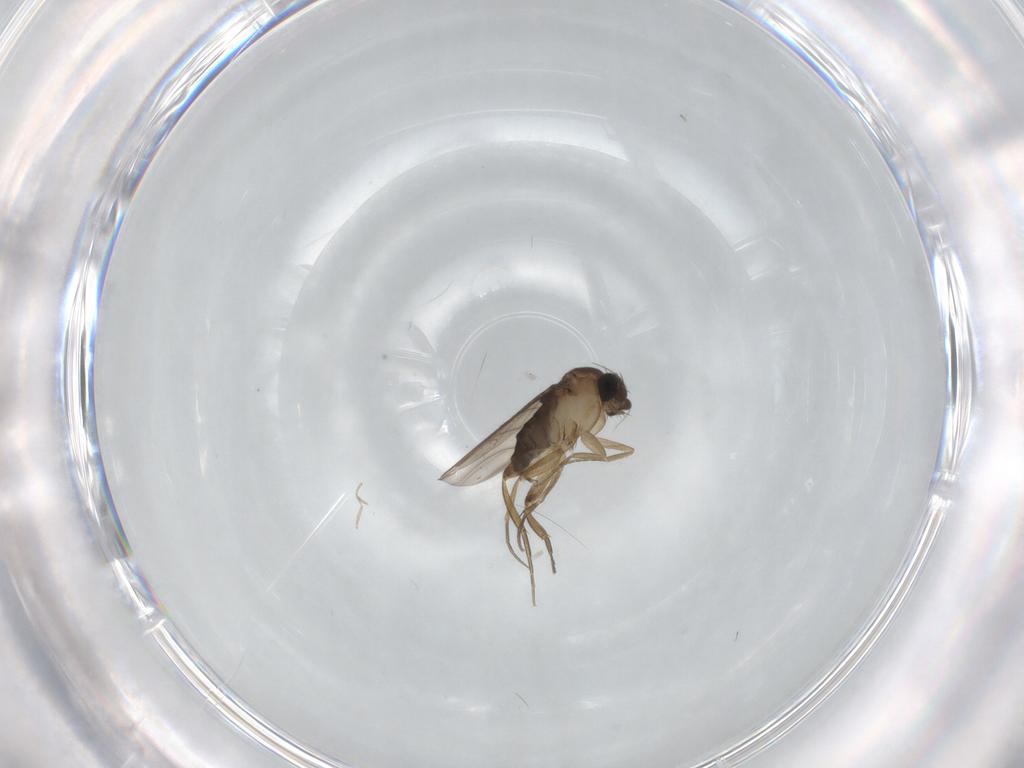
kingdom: Animalia
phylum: Arthropoda
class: Insecta
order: Diptera
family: Phoridae
